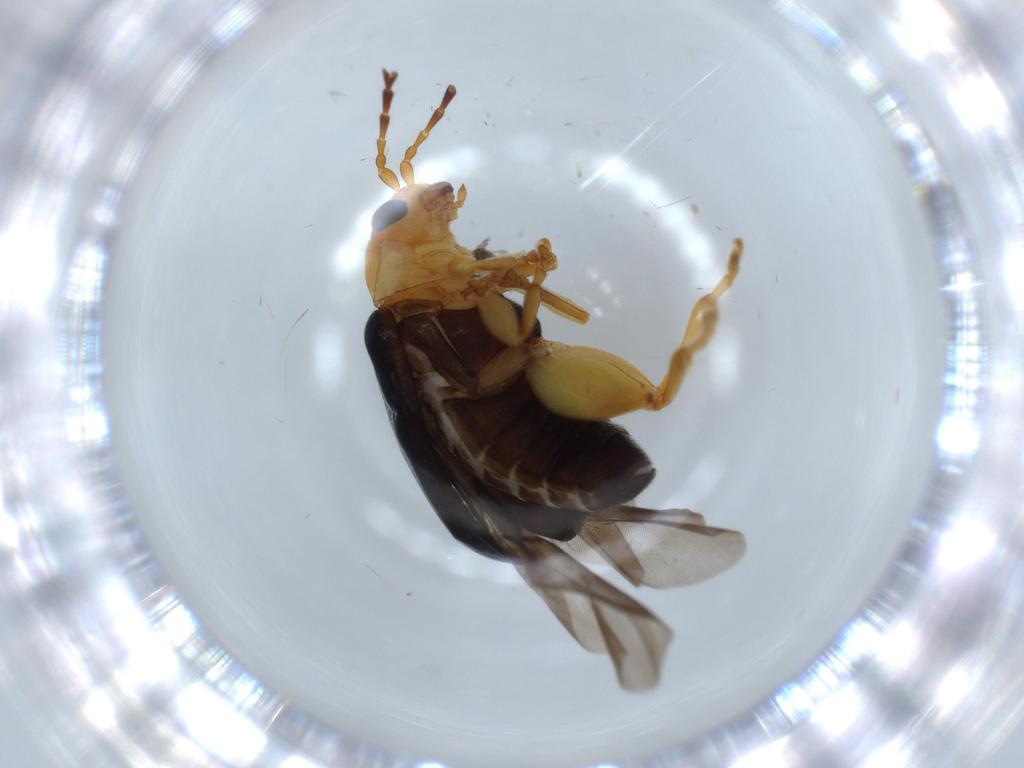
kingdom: Animalia
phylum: Arthropoda
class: Insecta
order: Coleoptera
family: Chrysomelidae
